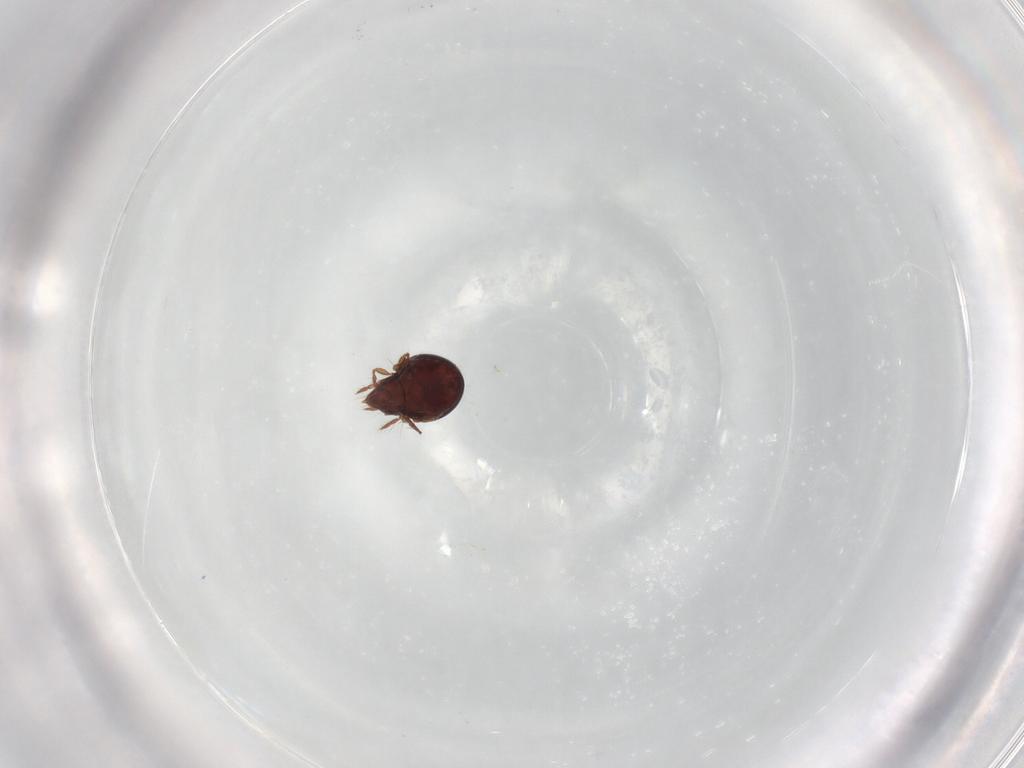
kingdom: Animalia
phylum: Arthropoda
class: Arachnida
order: Sarcoptiformes
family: Ceratoppiidae
